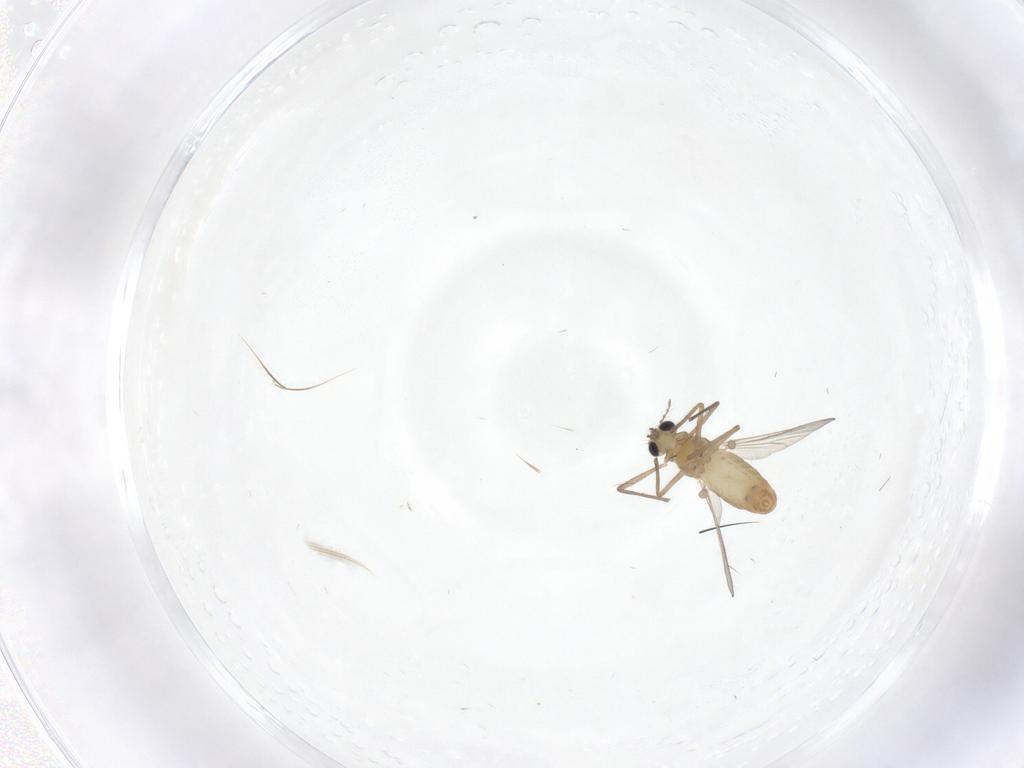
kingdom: Animalia
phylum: Arthropoda
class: Insecta
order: Diptera
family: Chironomidae
